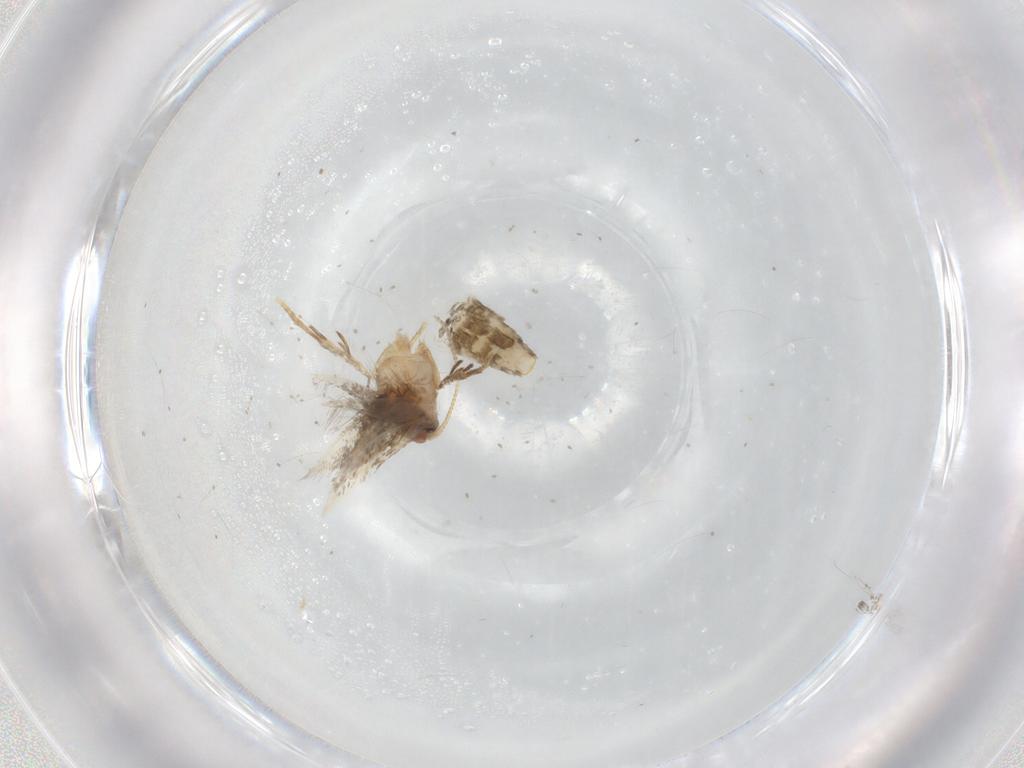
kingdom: Animalia
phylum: Arthropoda
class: Insecta
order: Lepidoptera
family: Nepticulidae
